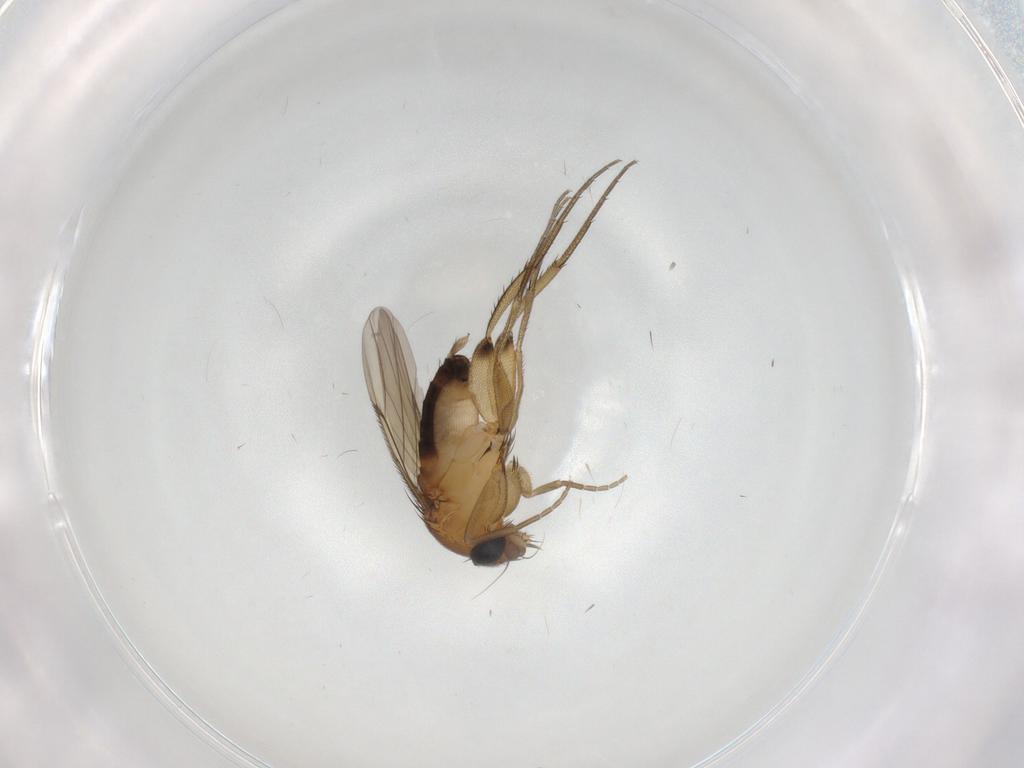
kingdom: Animalia
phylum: Arthropoda
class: Insecta
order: Diptera
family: Phoridae
